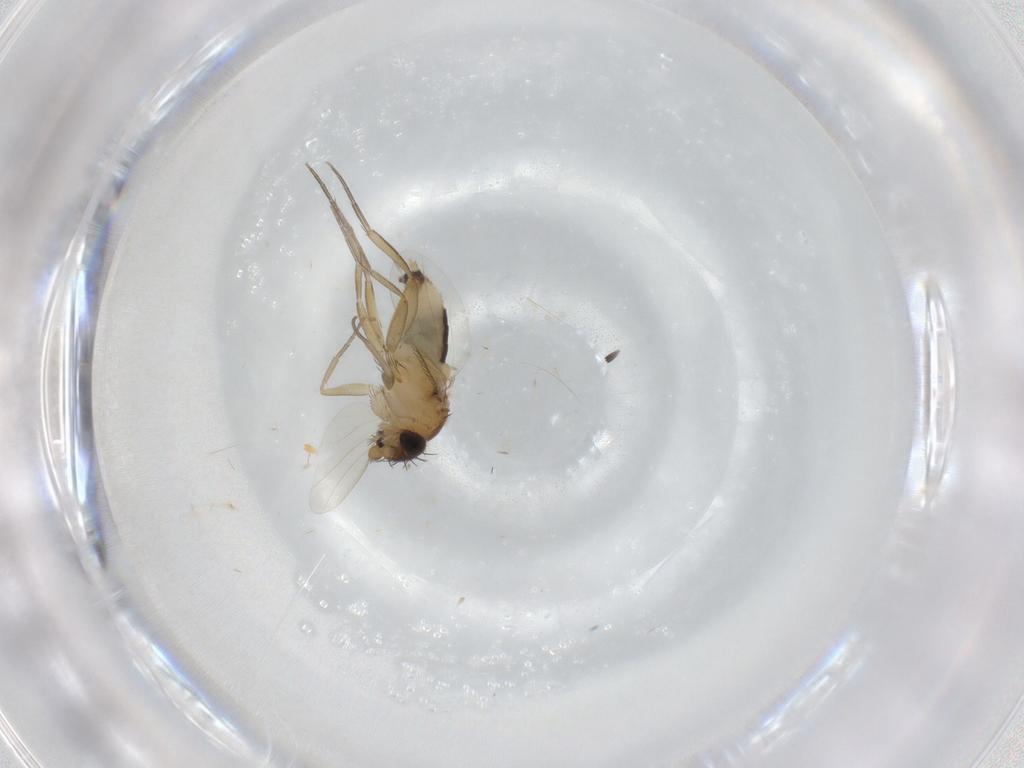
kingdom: Animalia
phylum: Arthropoda
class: Insecta
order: Diptera
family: Phoridae
